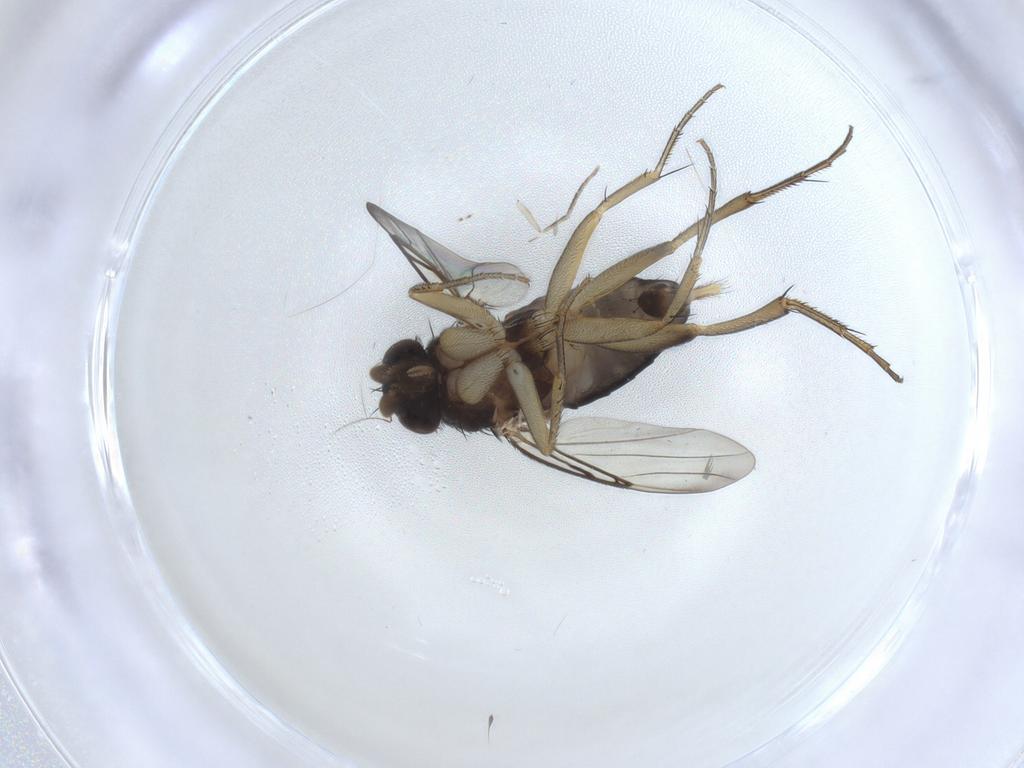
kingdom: Animalia
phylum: Arthropoda
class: Insecta
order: Diptera
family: Phoridae
